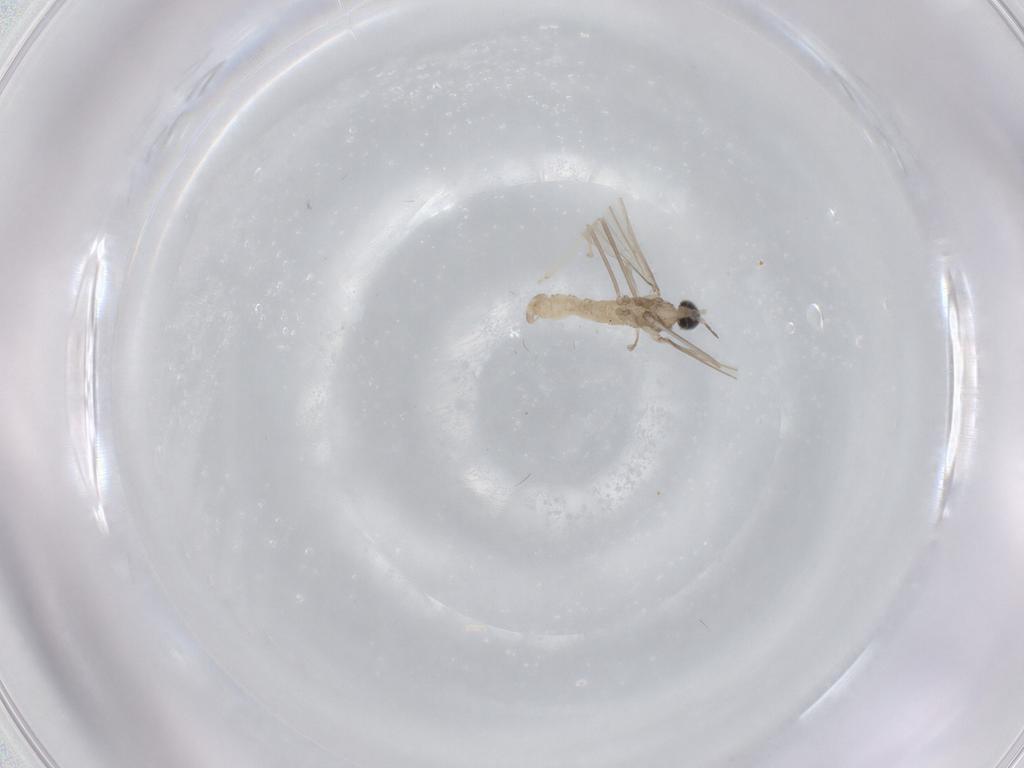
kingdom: Animalia
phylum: Arthropoda
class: Insecta
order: Diptera
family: Cecidomyiidae
